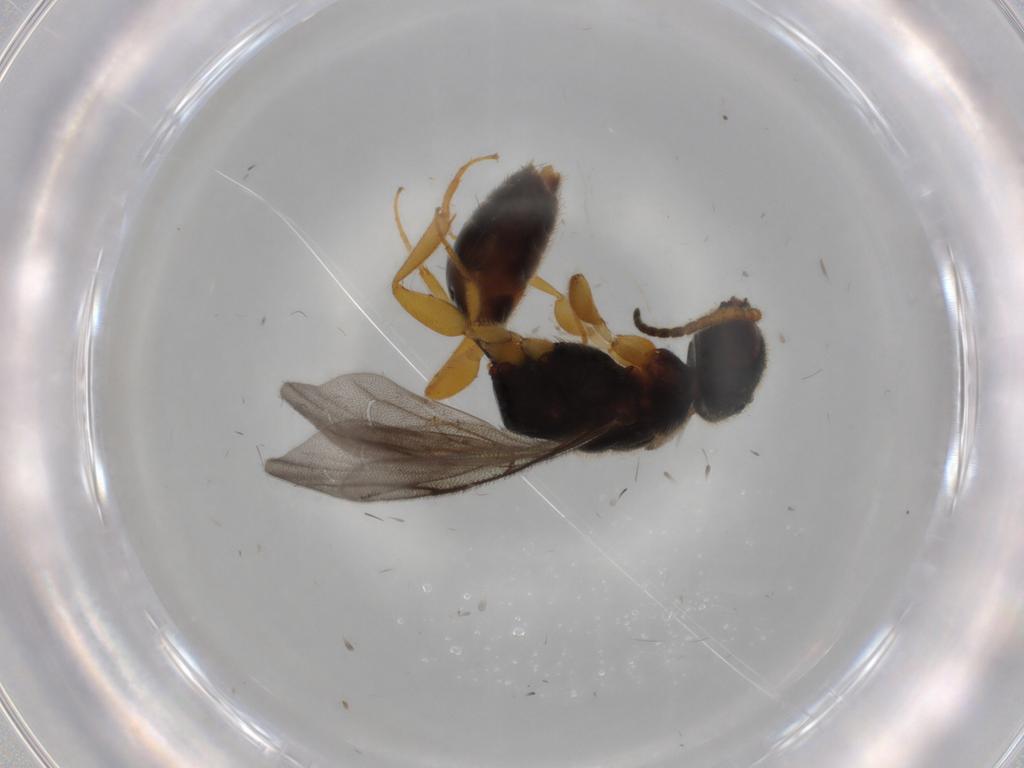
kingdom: Animalia
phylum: Arthropoda
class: Insecta
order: Hymenoptera
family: Bethylidae
